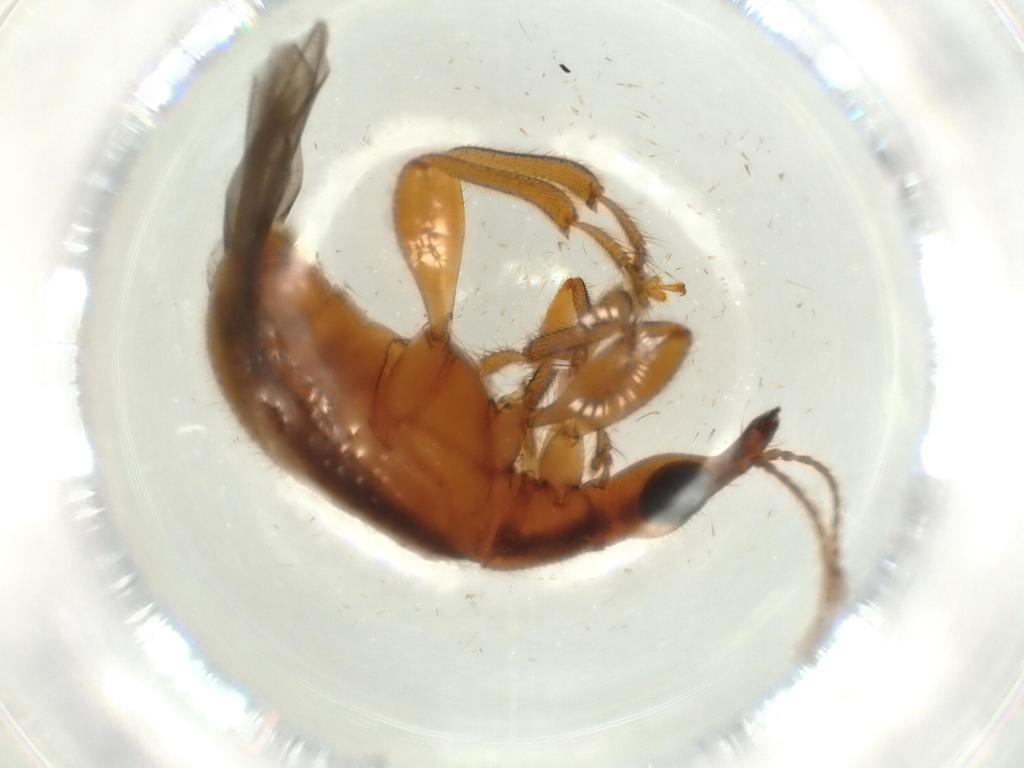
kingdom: Animalia
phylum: Arthropoda
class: Insecta
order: Coleoptera
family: Attelabidae
